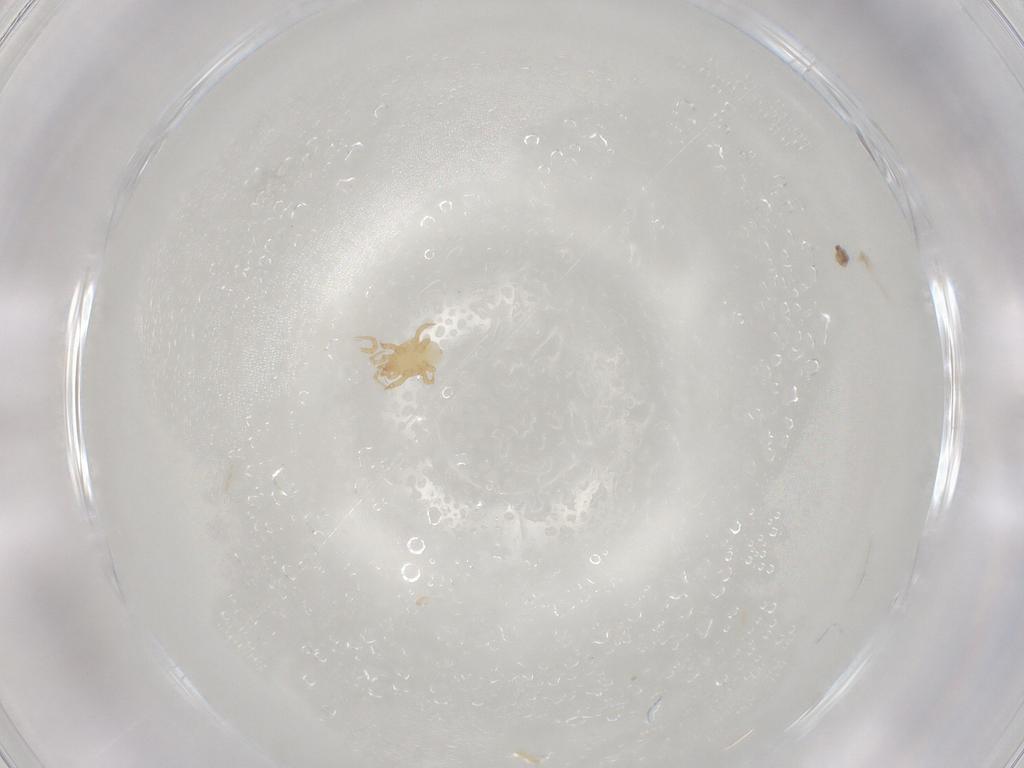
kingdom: Animalia
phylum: Arthropoda
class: Arachnida
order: Mesostigmata
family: Parasitidae
